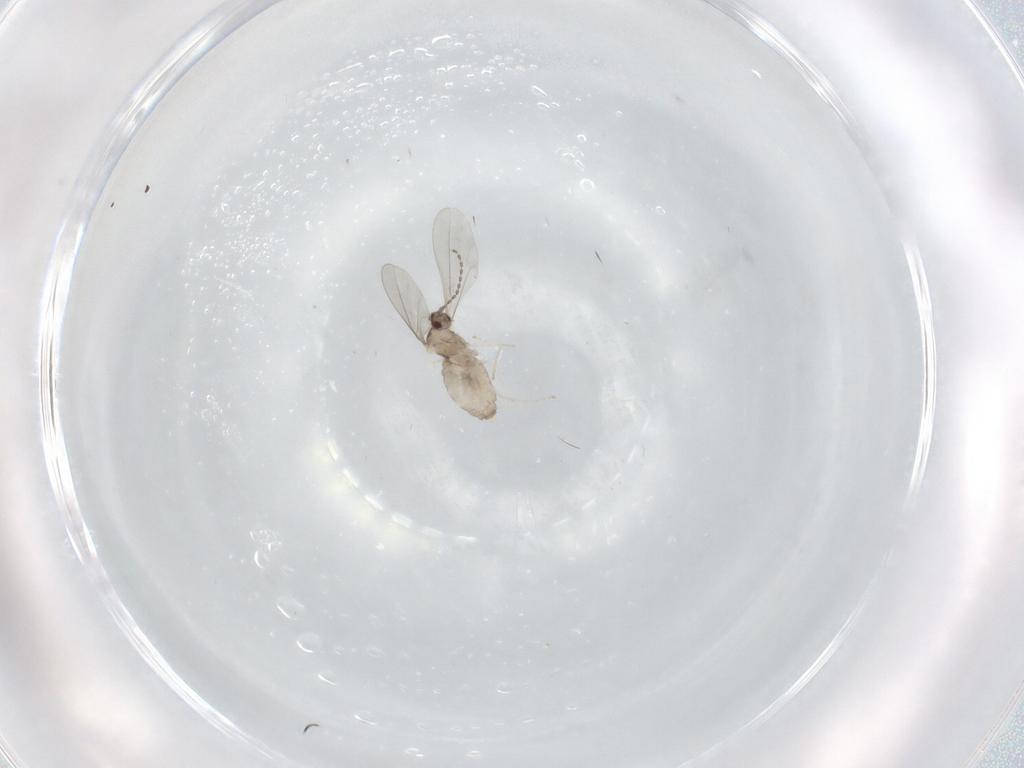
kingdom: Animalia
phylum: Arthropoda
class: Insecta
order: Diptera
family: Cecidomyiidae
